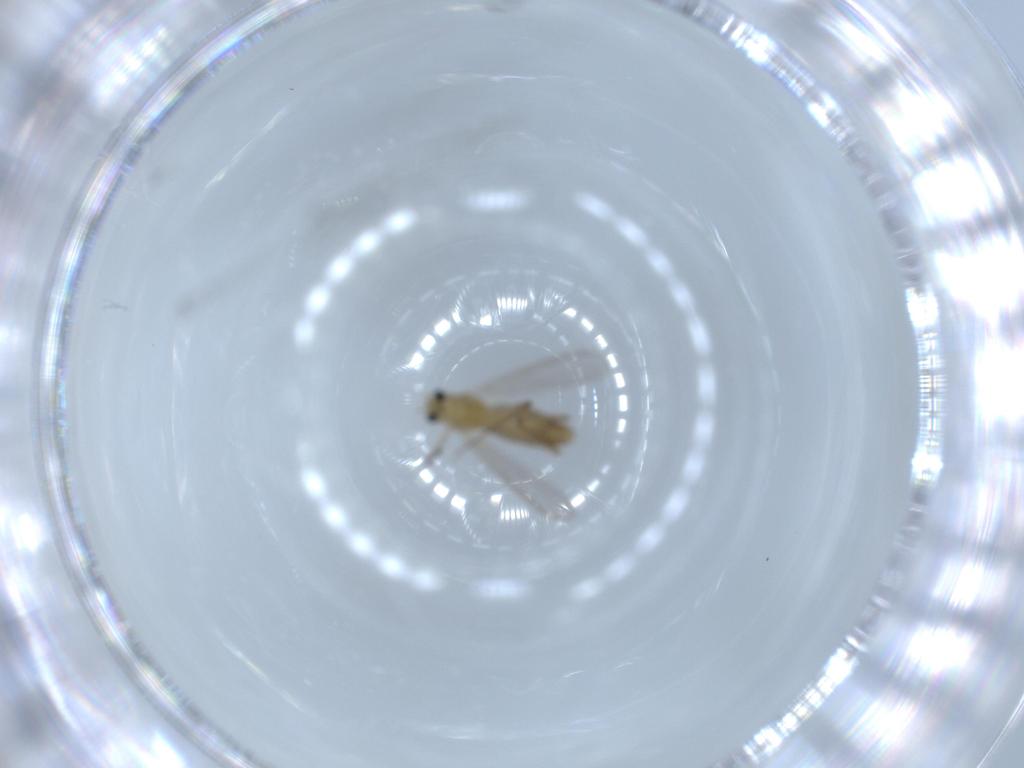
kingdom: Animalia
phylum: Arthropoda
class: Insecta
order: Diptera
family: Chironomidae
